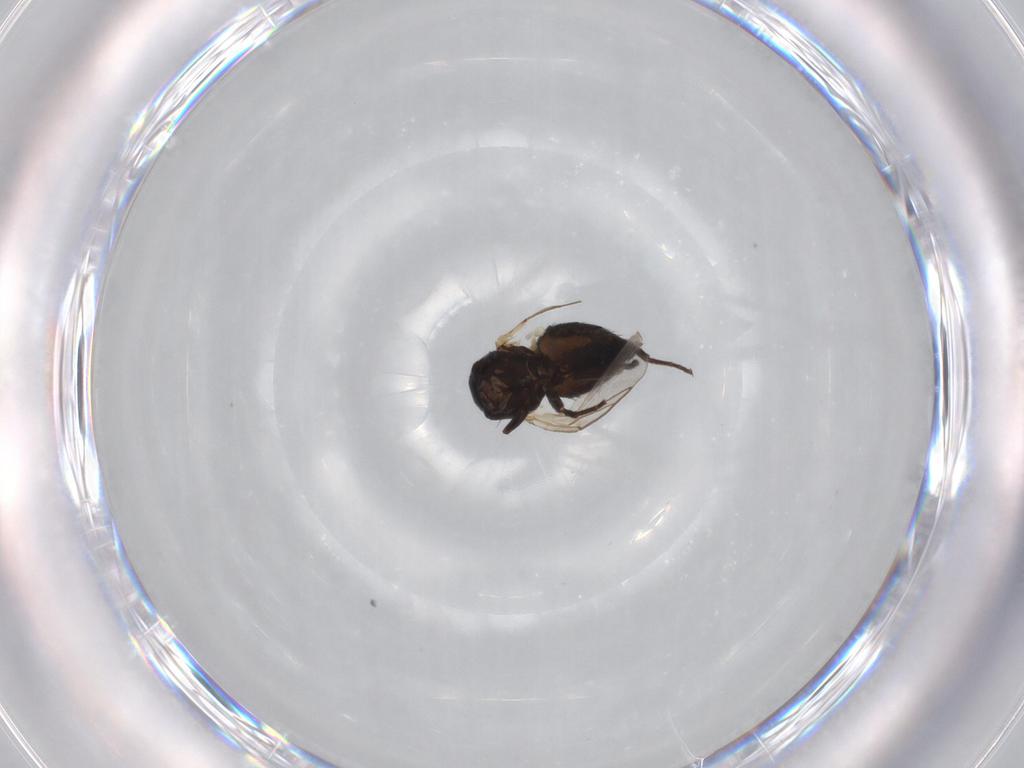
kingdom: Animalia
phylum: Arthropoda
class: Insecta
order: Diptera
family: Agromyzidae
